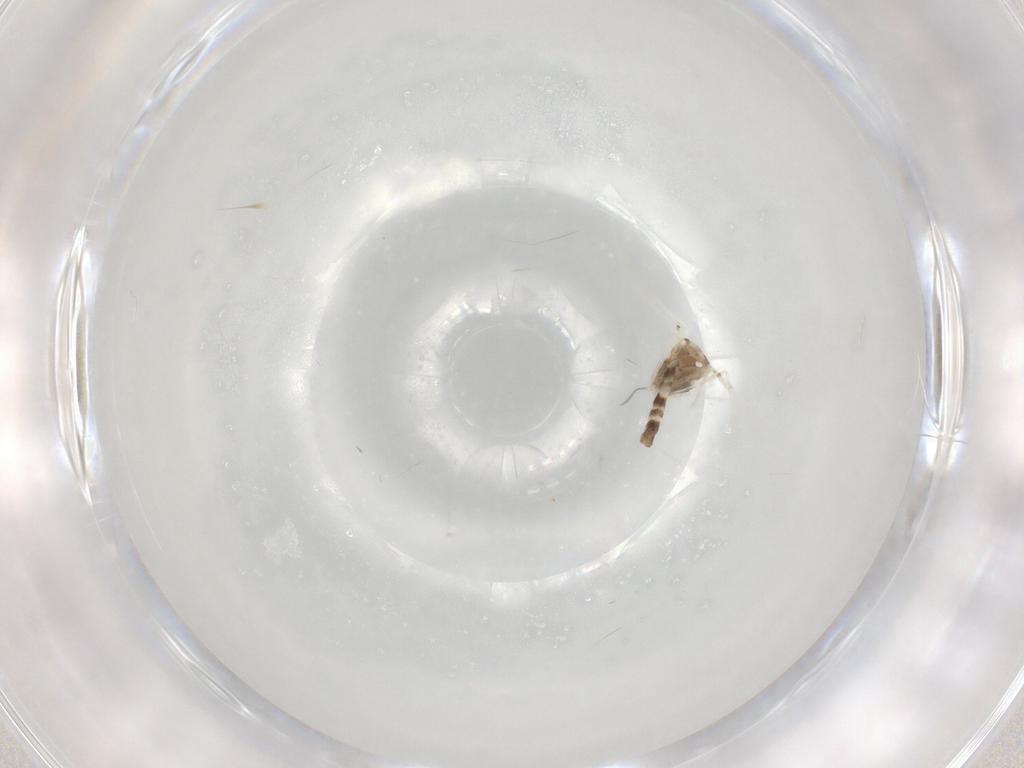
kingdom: Animalia
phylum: Arthropoda
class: Insecta
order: Diptera
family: Chironomidae
